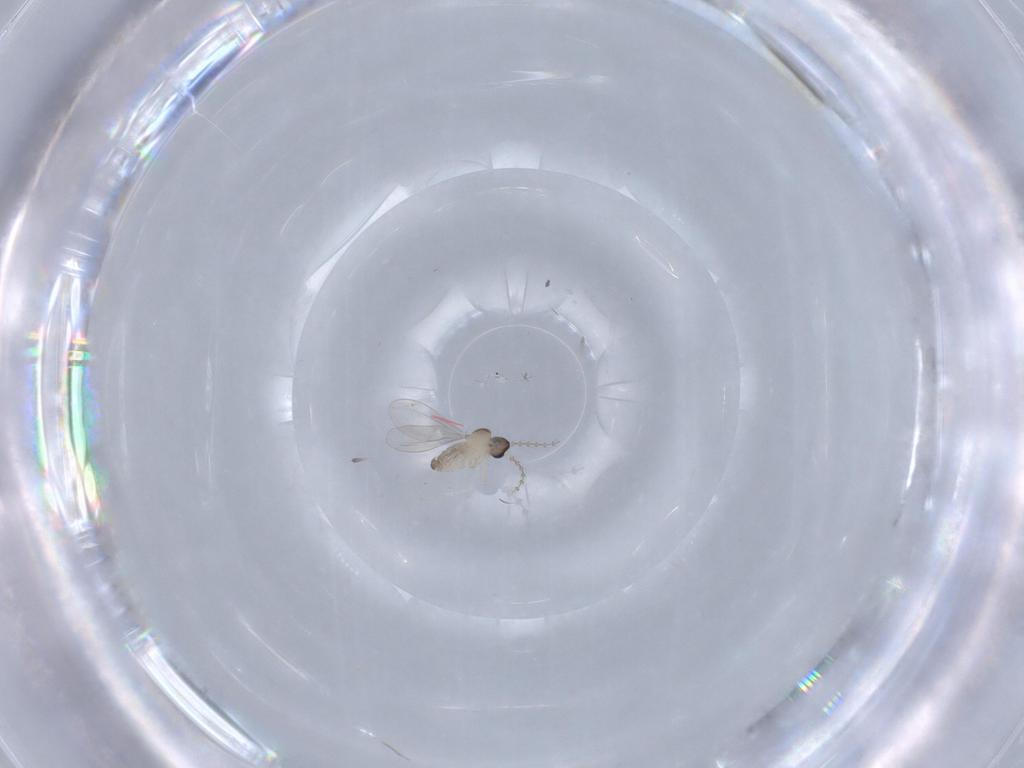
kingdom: Animalia
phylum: Arthropoda
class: Insecta
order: Diptera
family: Cecidomyiidae
